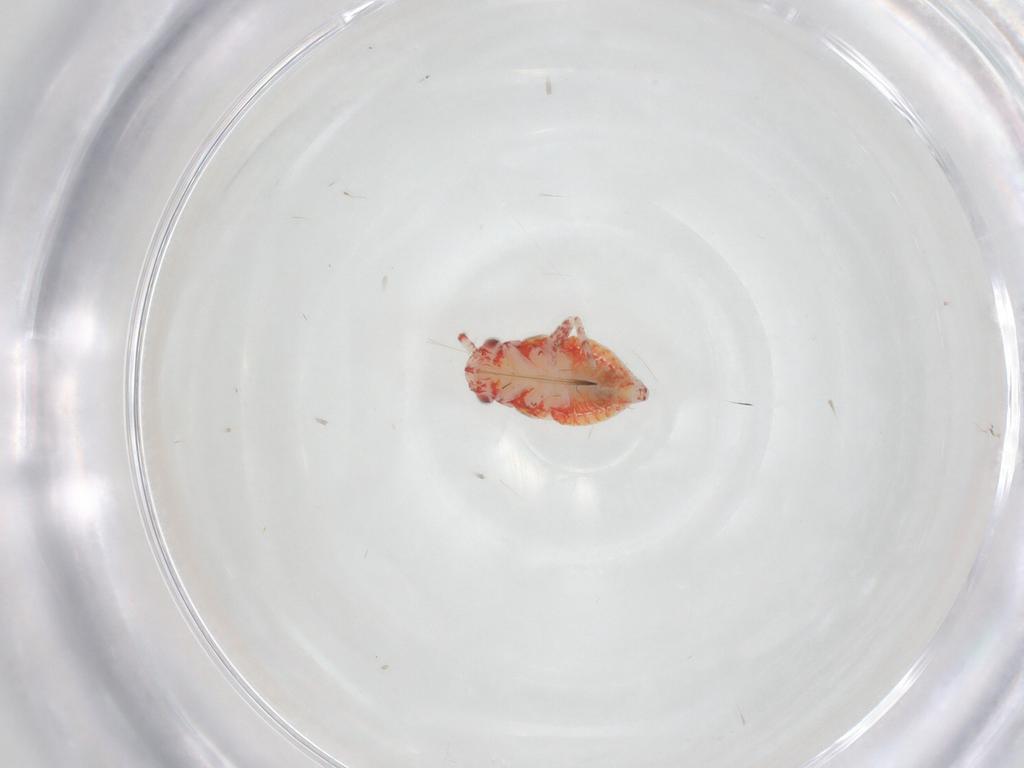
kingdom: Animalia
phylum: Arthropoda
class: Insecta
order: Hemiptera
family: Miridae
